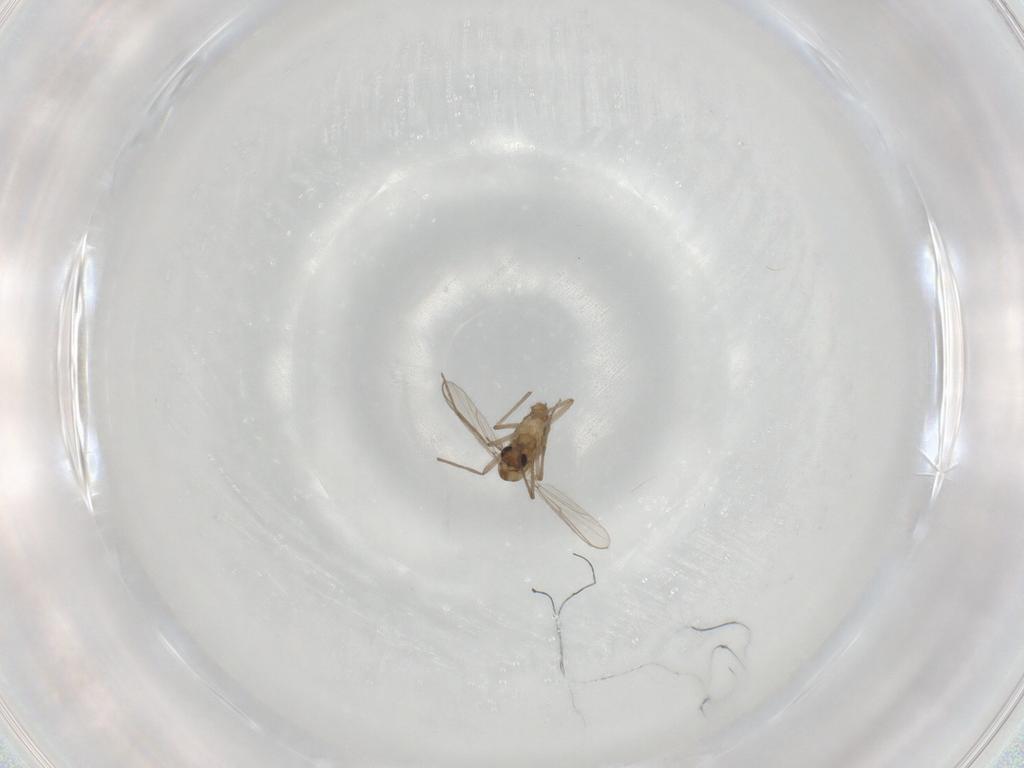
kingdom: Animalia
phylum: Arthropoda
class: Insecta
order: Diptera
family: Chironomidae
